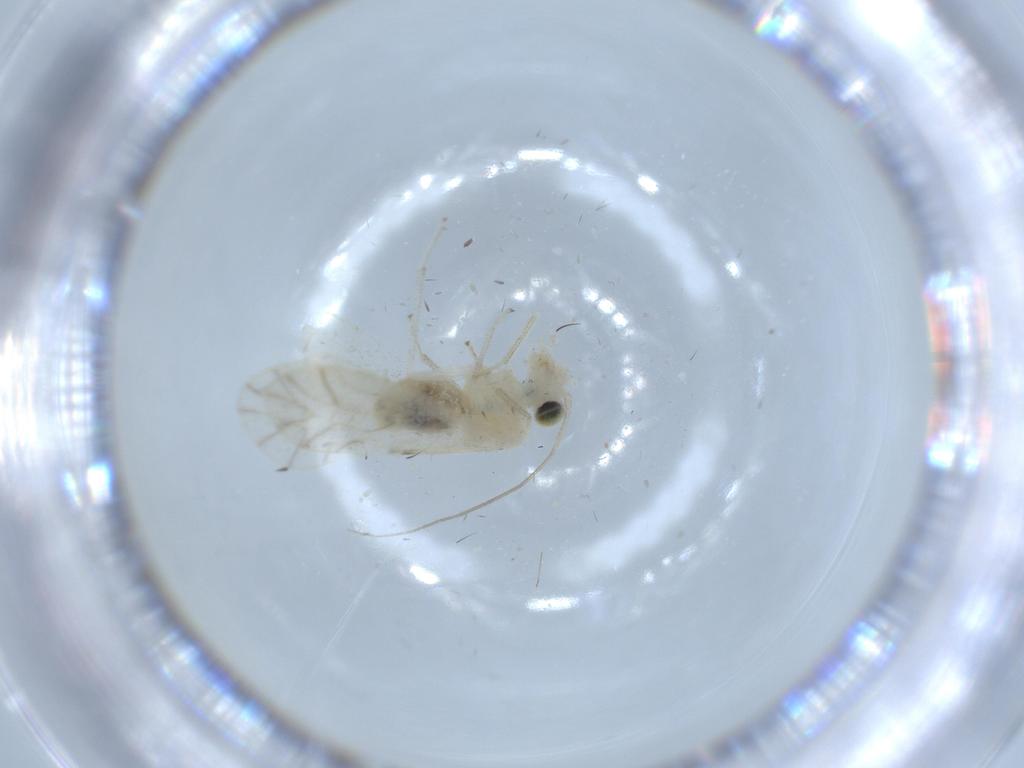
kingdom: Animalia
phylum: Arthropoda
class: Insecta
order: Psocodea
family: Caeciliusidae
